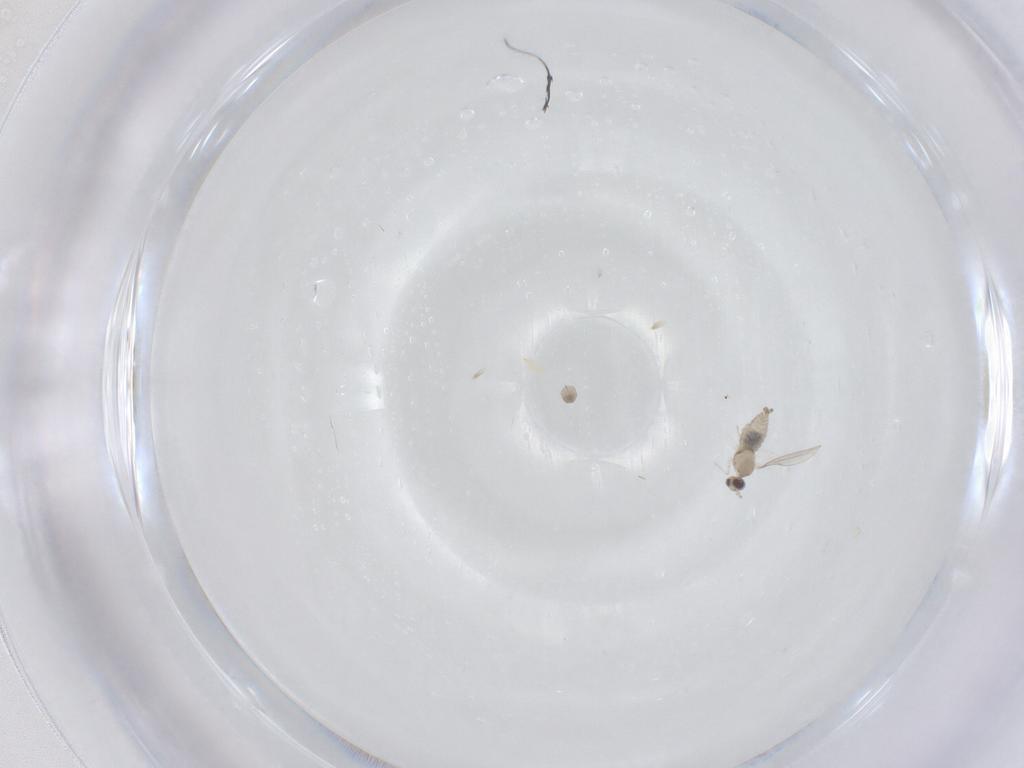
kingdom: Animalia
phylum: Arthropoda
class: Insecta
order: Diptera
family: Cecidomyiidae
